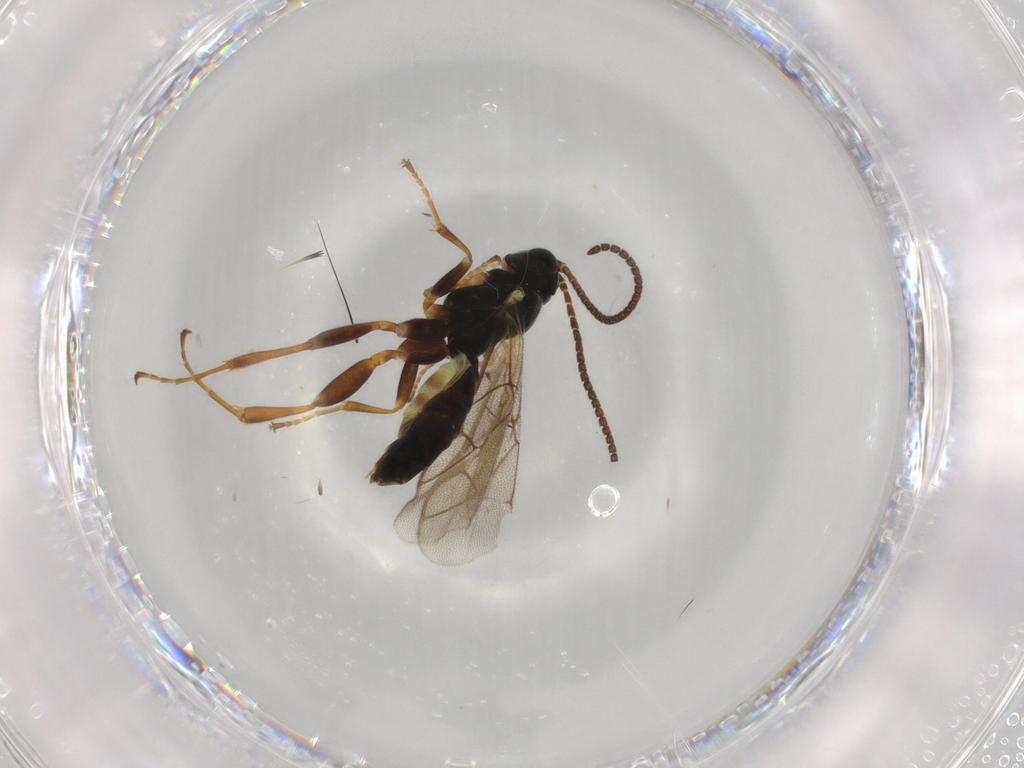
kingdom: Animalia
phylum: Arthropoda
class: Insecta
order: Hymenoptera
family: Ichneumonidae
